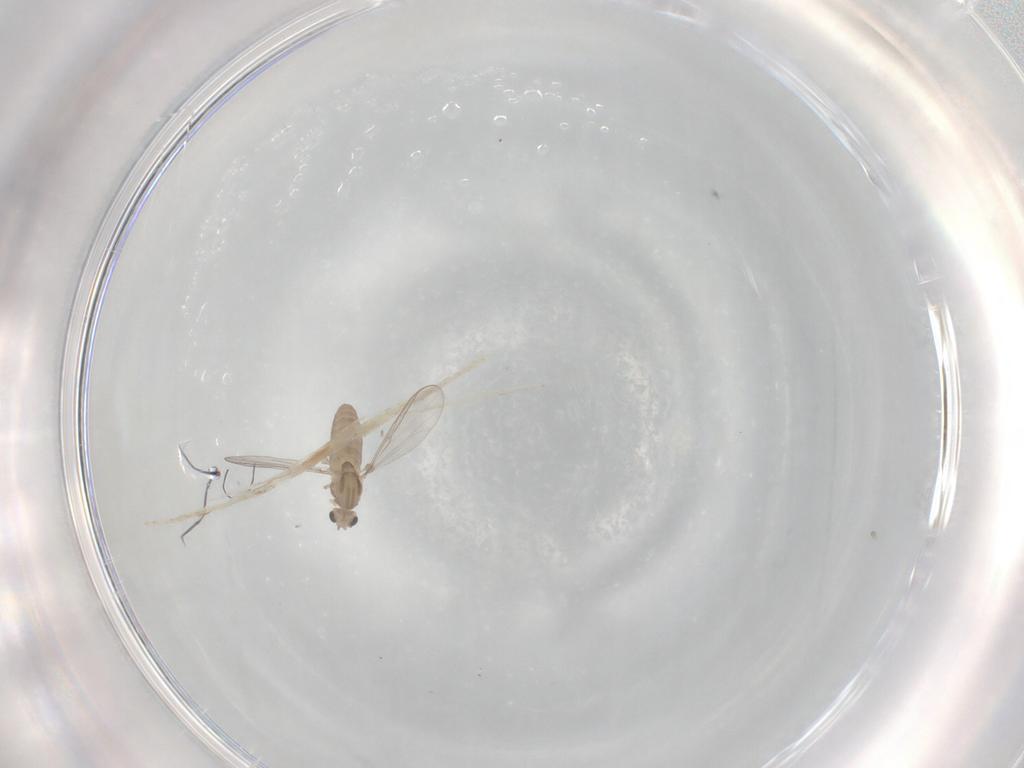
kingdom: Animalia
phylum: Arthropoda
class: Insecta
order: Diptera
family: Chironomidae
